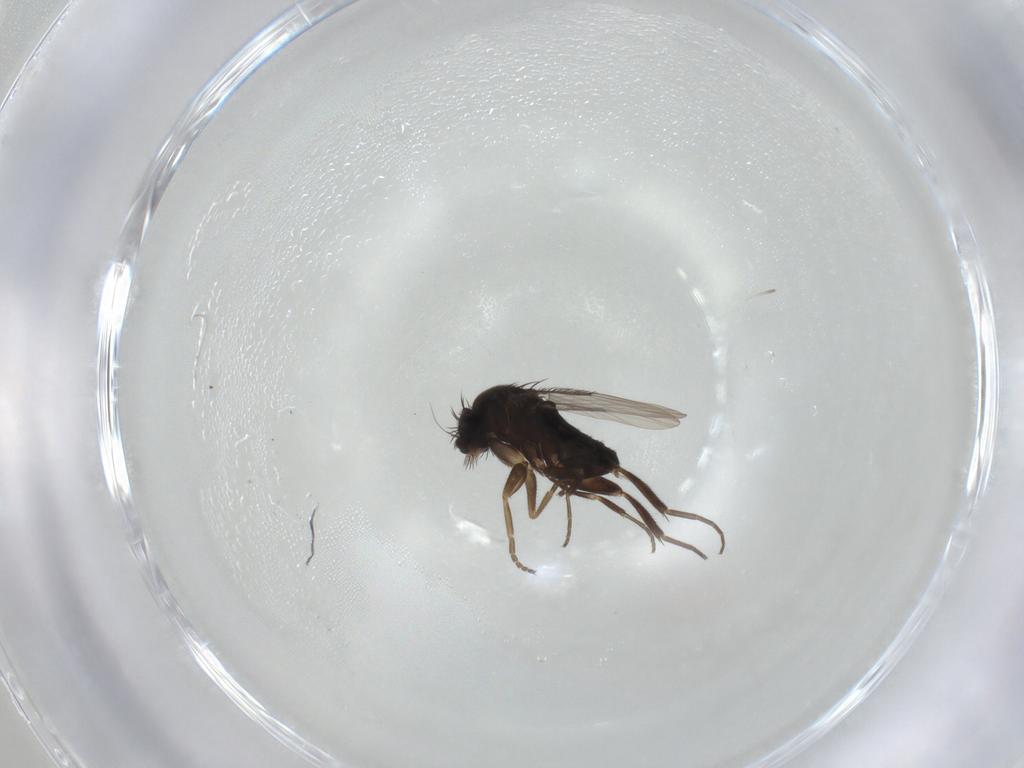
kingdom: Animalia
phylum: Arthropoda
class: Insecta
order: Diptera
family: Phoridae
